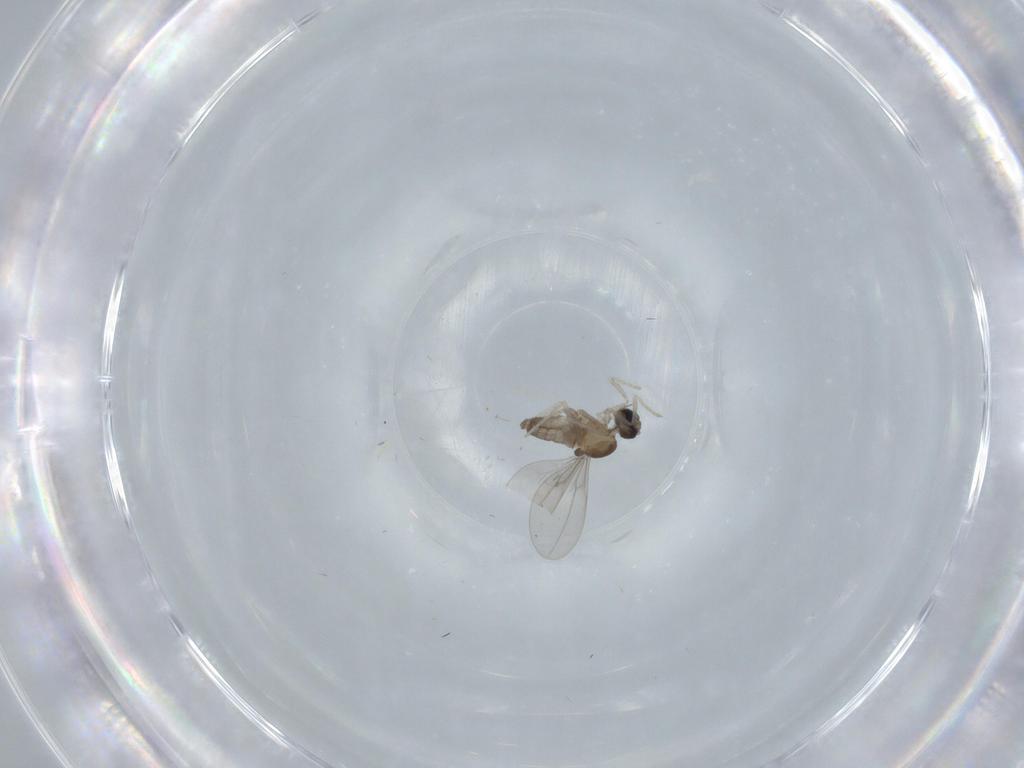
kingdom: Animalia
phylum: Arthropoda
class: Insecta
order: Diptera
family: Cecidomyiidae
